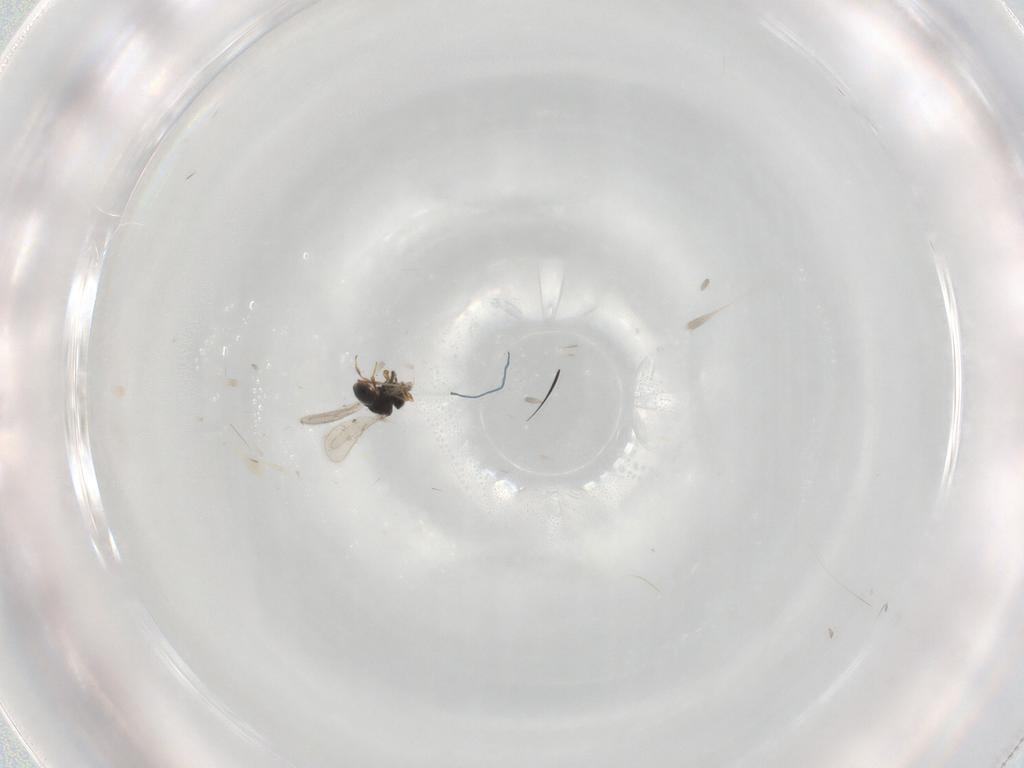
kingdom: Animalia
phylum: Arthropoda
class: Insecta
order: Hymenoptera
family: Scelionidae
